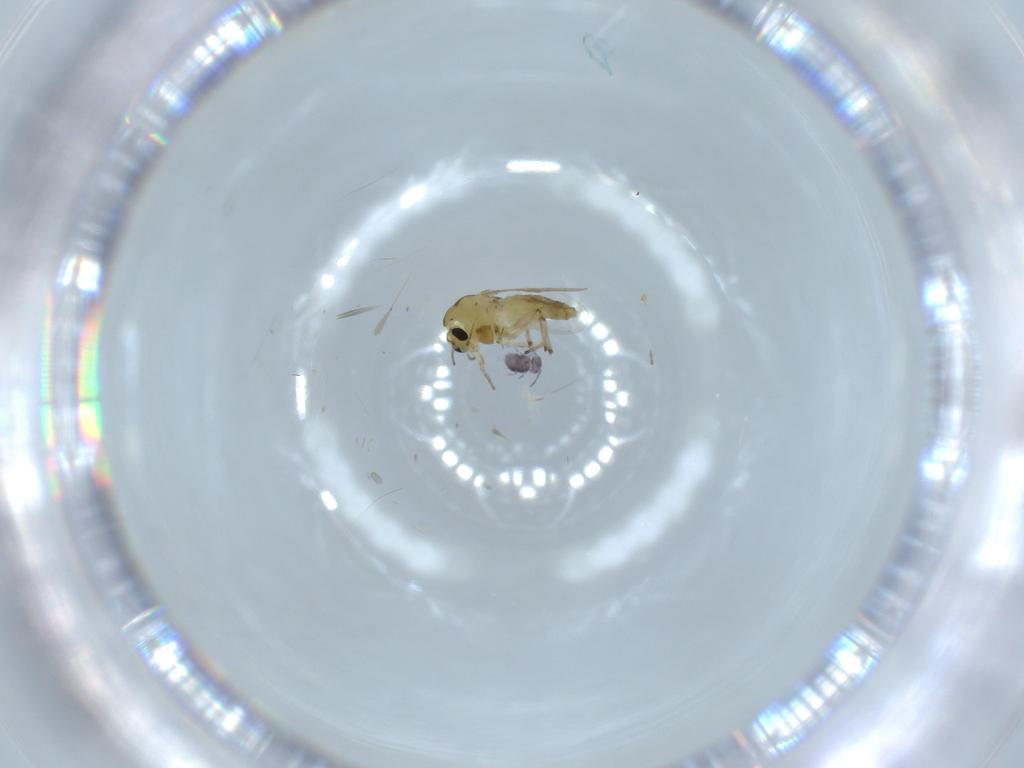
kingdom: Animalia
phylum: Arthropoda
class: Insecta
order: Diptera
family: Chironomidae
